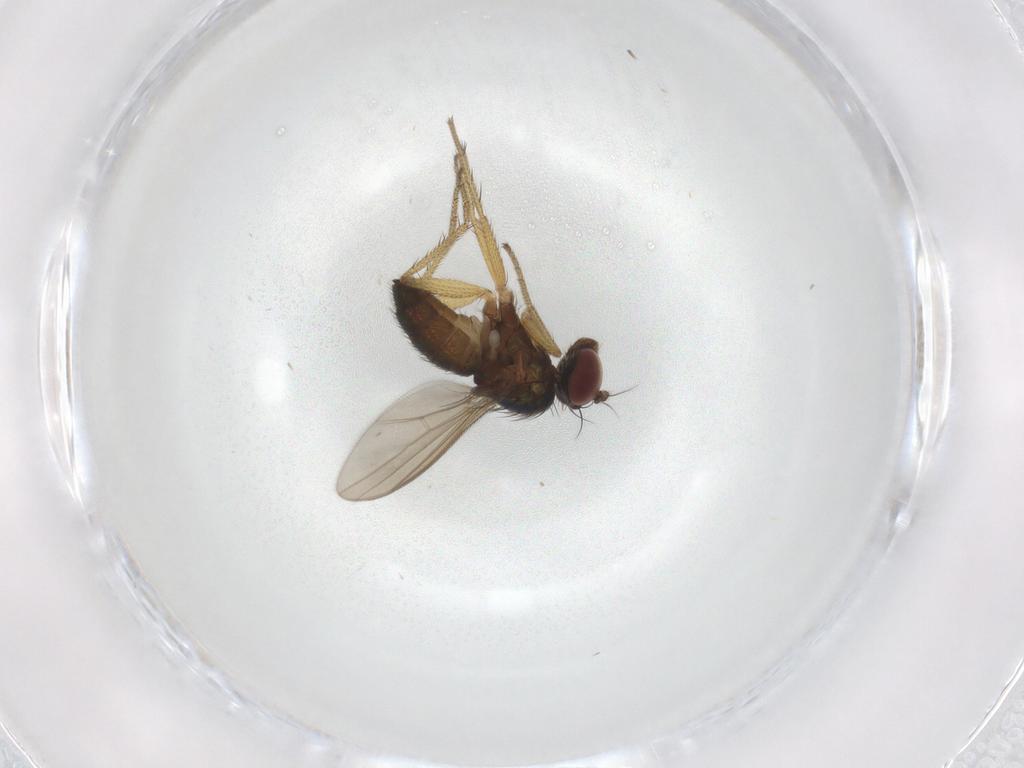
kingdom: Animalia
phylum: Arthropoda
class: Insecta
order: Diptera
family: Dolichopodidae
